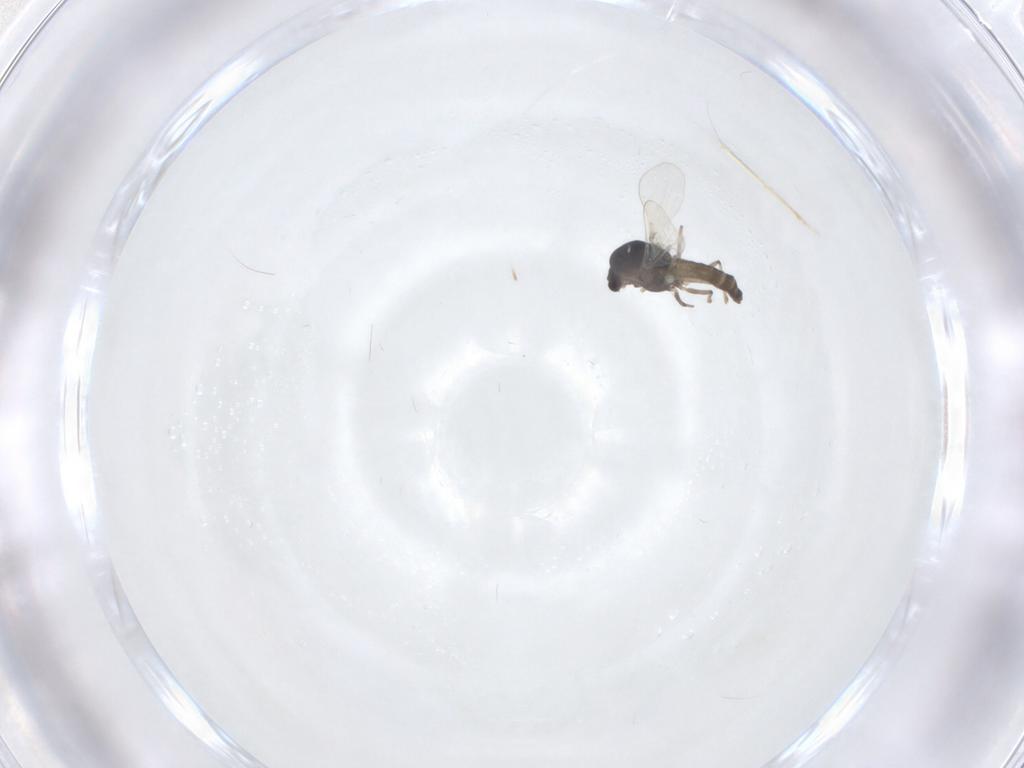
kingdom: Animalia
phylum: Arthropoda
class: Insecta
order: Diptera
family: Chironomidae
